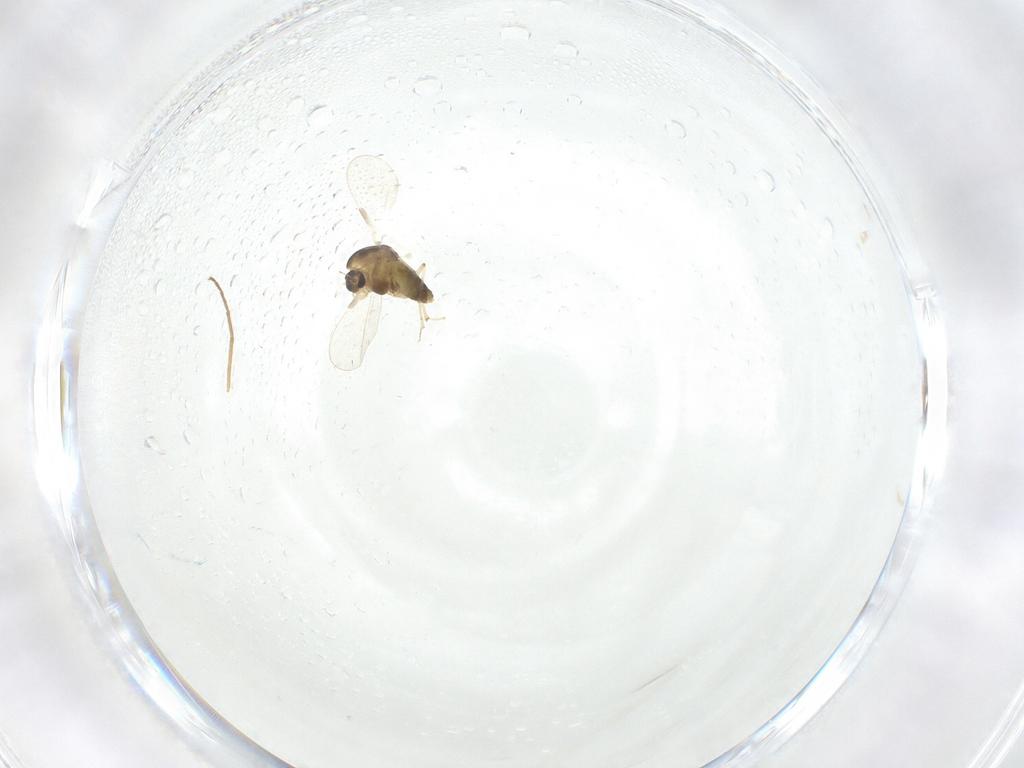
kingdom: Animalia
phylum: Arthropoda
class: Insecta
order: Diptera
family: Chironomidae
